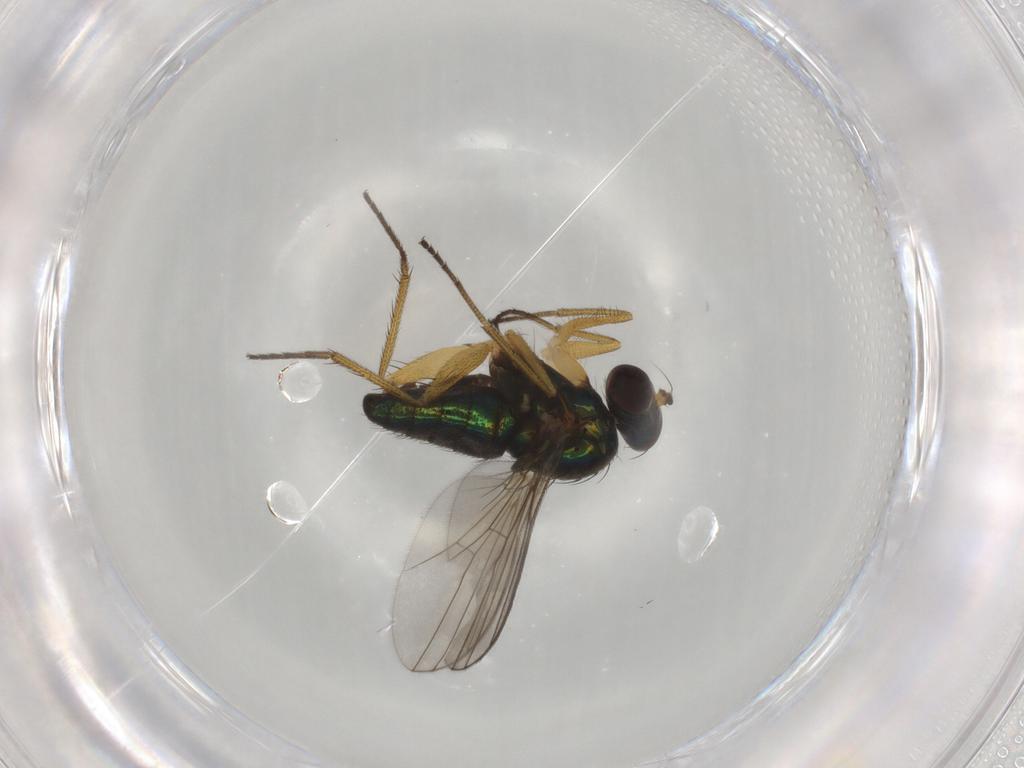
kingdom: Animalia
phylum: Arthropoda
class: Insecta
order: Diptera
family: Dolichopodidae
